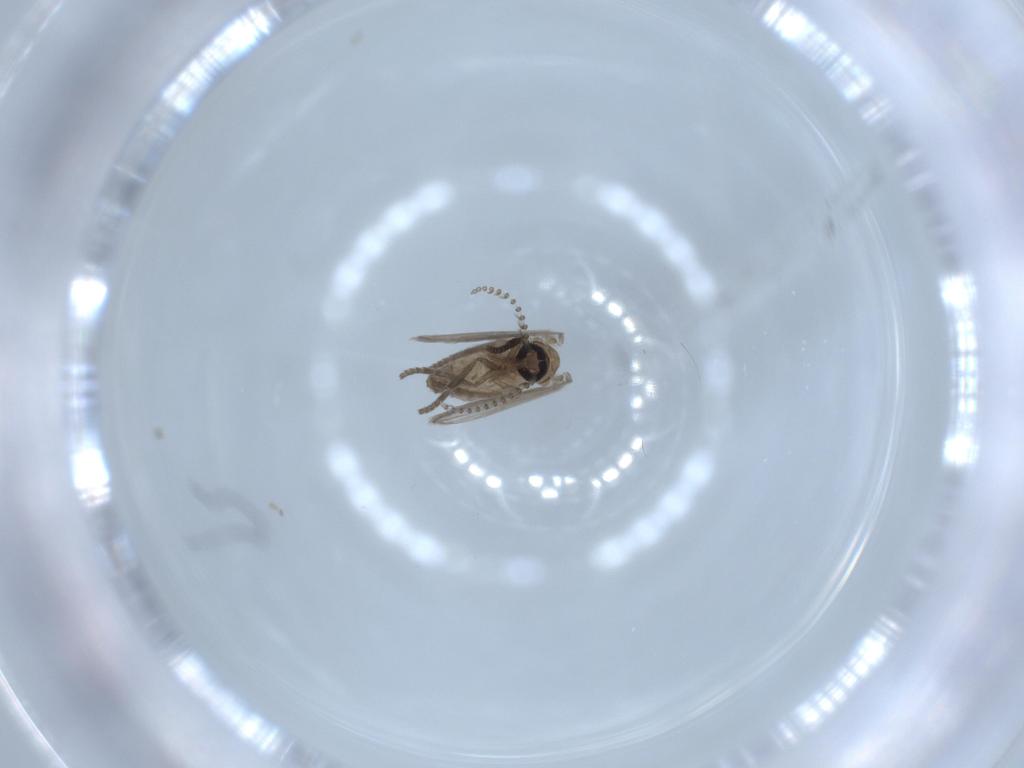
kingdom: Animalia
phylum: Arthropoda
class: Insecta
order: Diptera
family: Psychodidae
